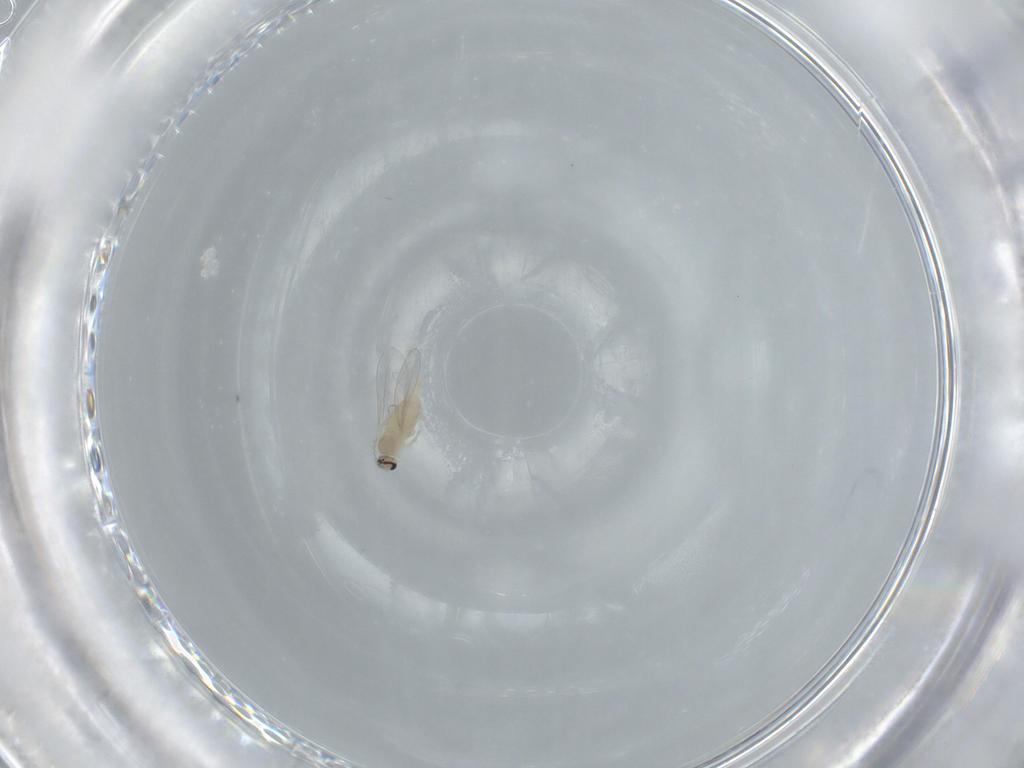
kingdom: Animalia
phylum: Arthropoda
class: Insecta
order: Diptera
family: Cecidomyiidae
